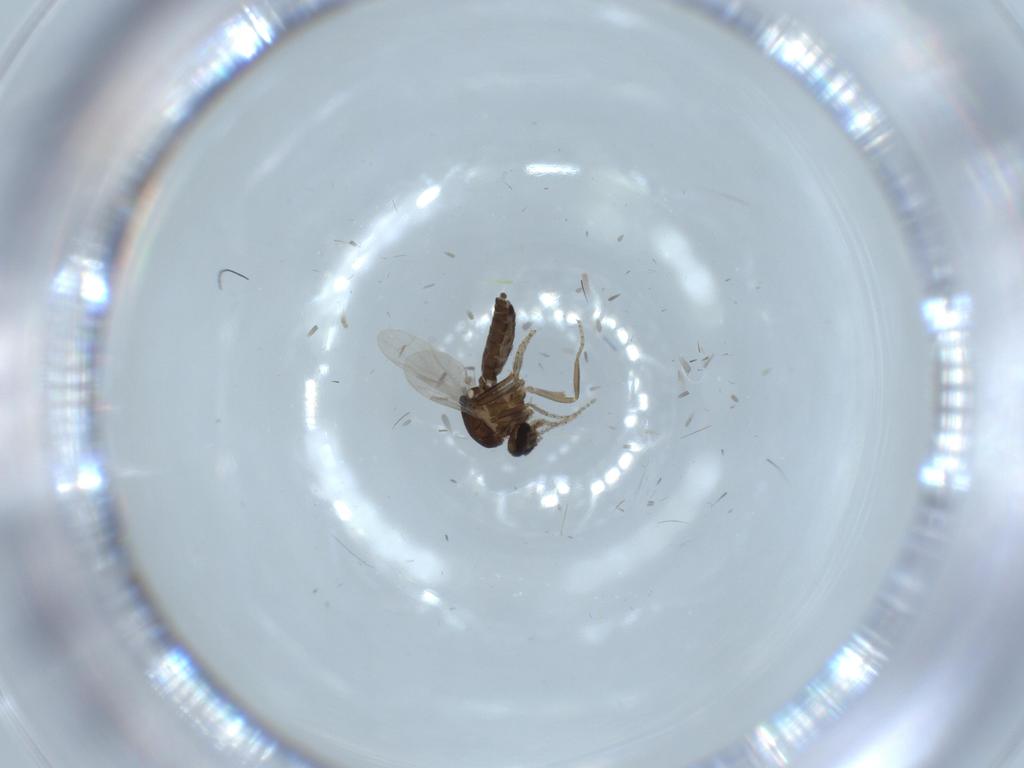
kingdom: Animalia
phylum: Arthropoda
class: Insecta
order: Diptera
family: Ceratopogonidae
